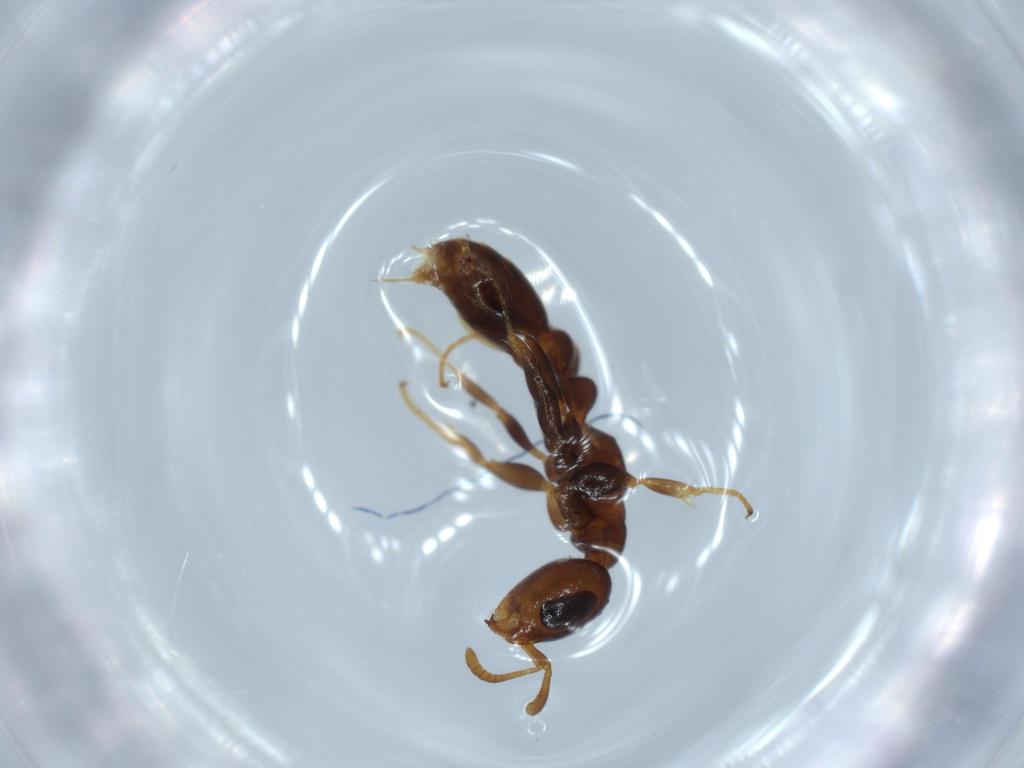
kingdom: Animalia
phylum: Arthropoda
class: Insecta
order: Hymenoptera
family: Formicidae
